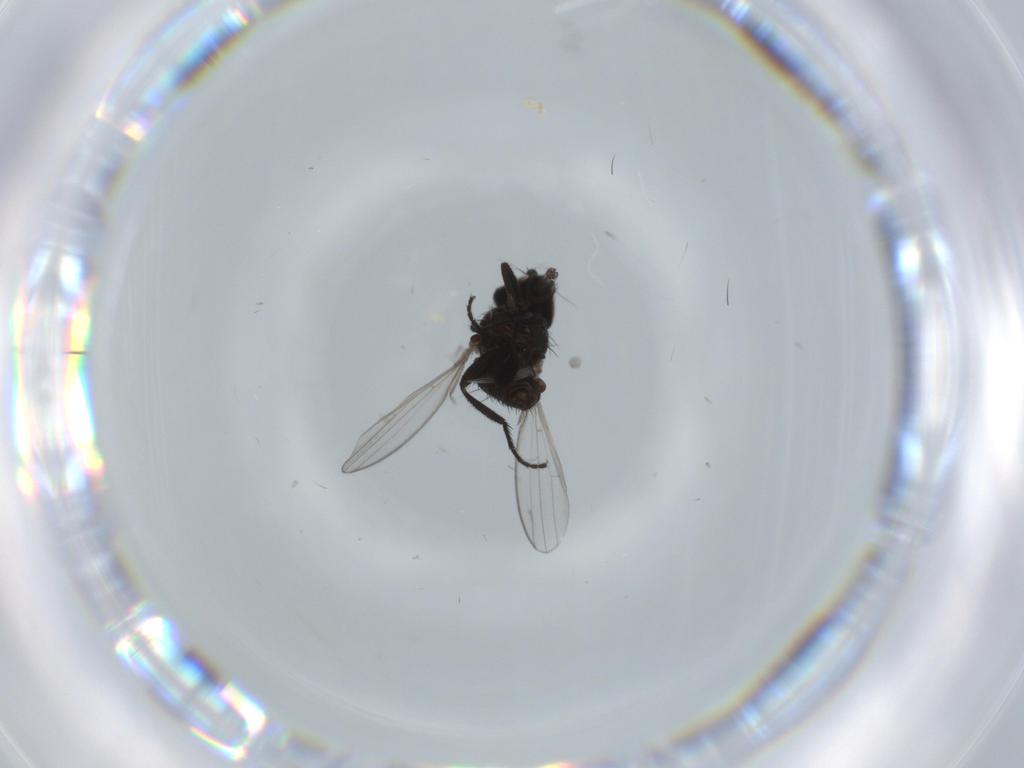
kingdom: Animalia
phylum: Arthropoda
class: Insecta
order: Diptera
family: Milichiidae
